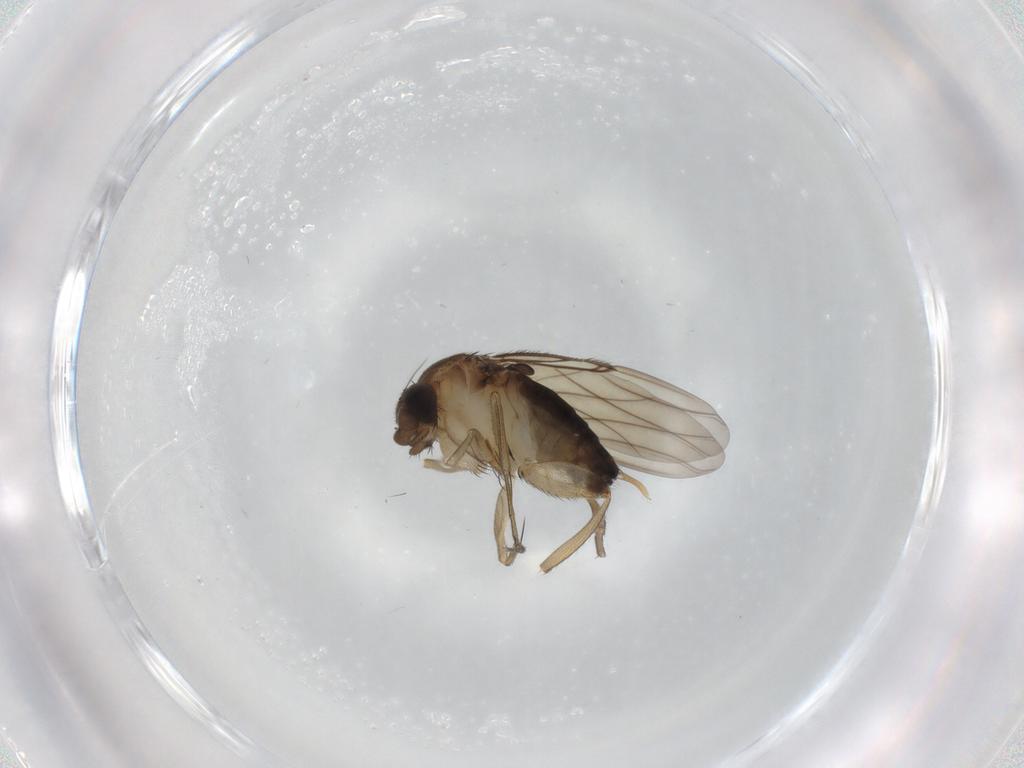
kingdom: Animalia
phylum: Arthropoda
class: Insecta
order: Diptera
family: Phoridae
